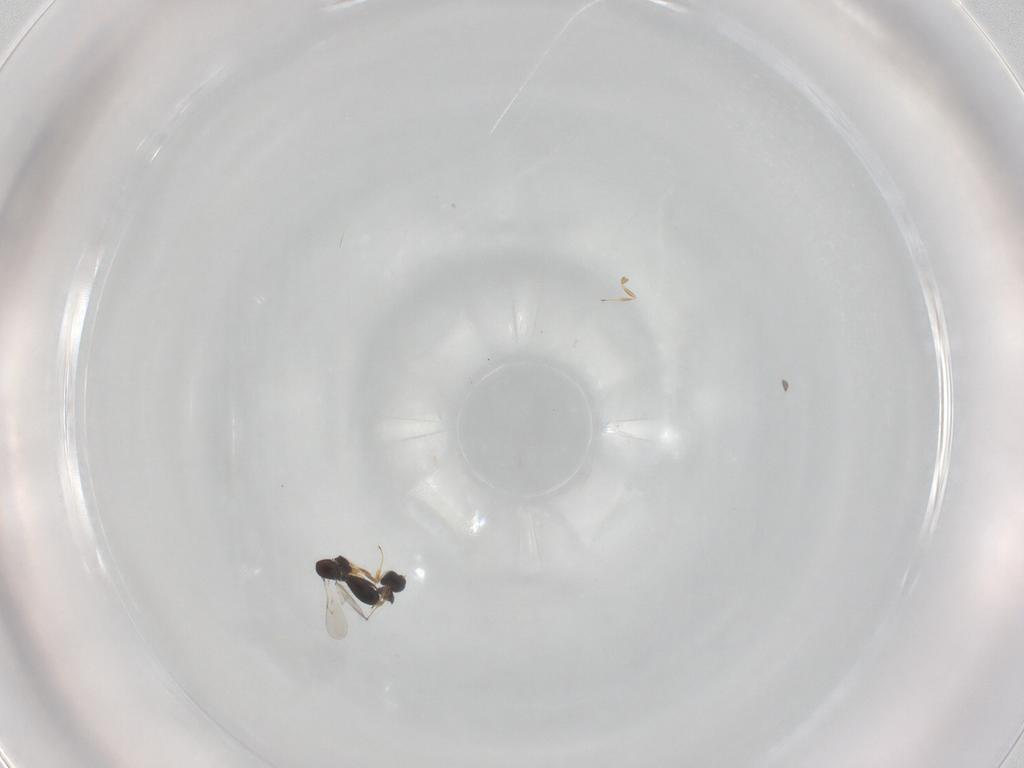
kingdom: Animalia
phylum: Arthropoda
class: Insecta
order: Hymenoptera
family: Scelionidae
